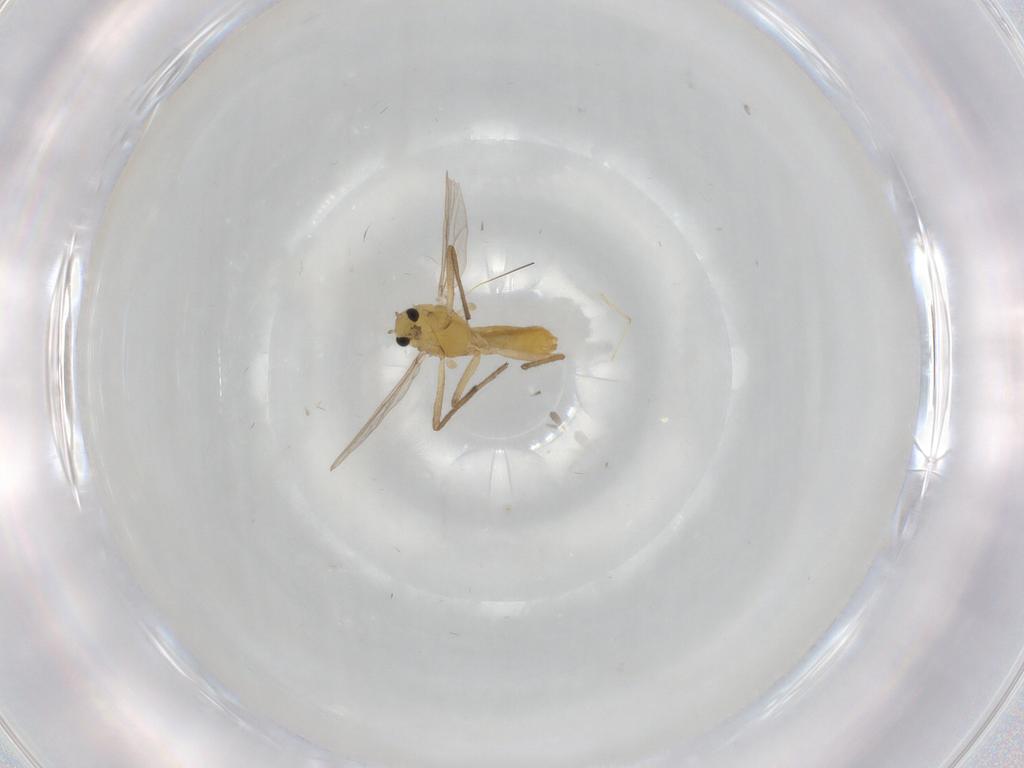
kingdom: Animalia
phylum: Arthropoda
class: Insecta
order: Diptera
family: Chironomidae
